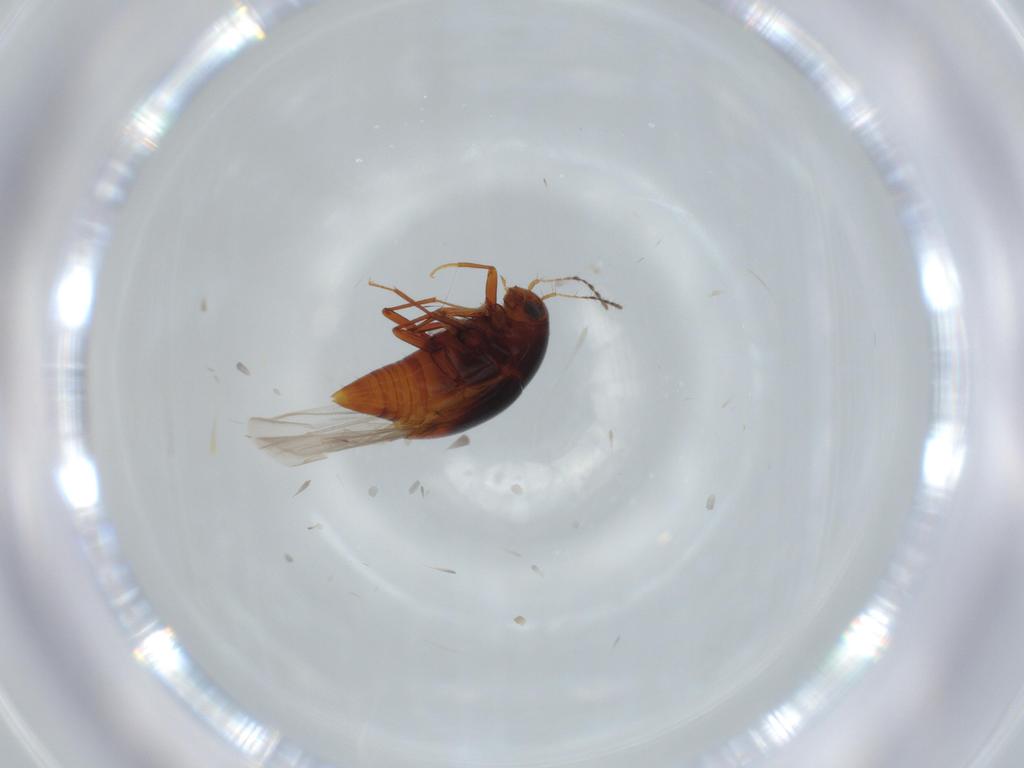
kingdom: Animalia
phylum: Arthropoda
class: Insecta
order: Coleoptera
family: Staphylinidae
